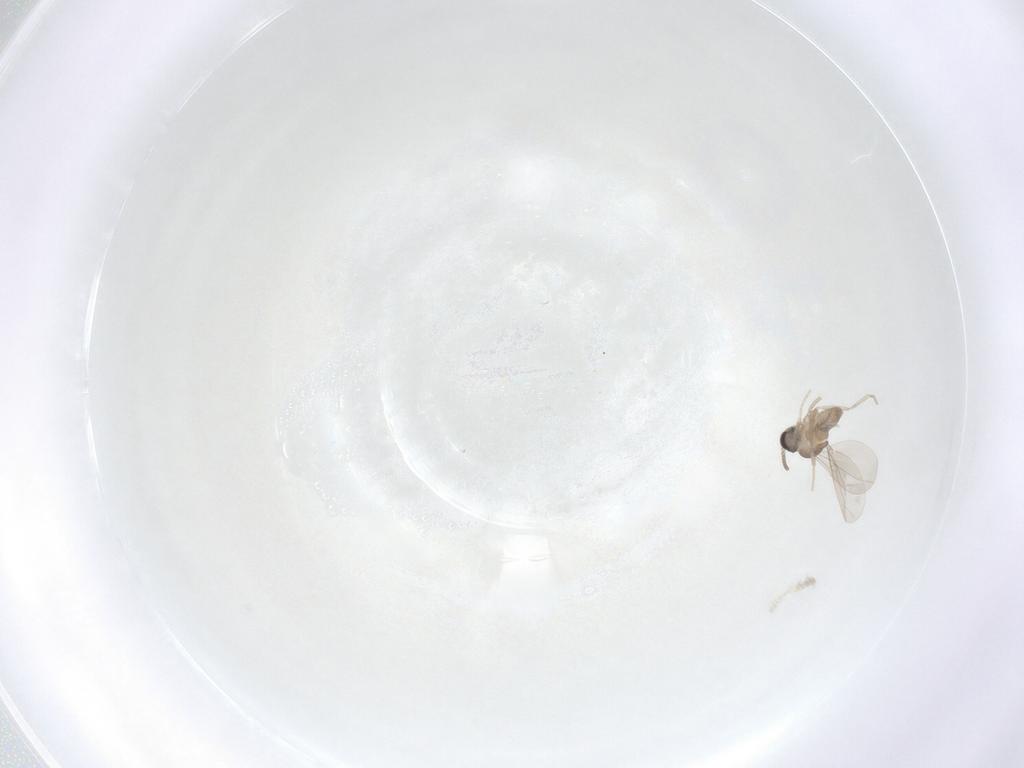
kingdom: Animalia
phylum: Arthropoda
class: Insecta
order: Diptera
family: Cecidomyiidae
